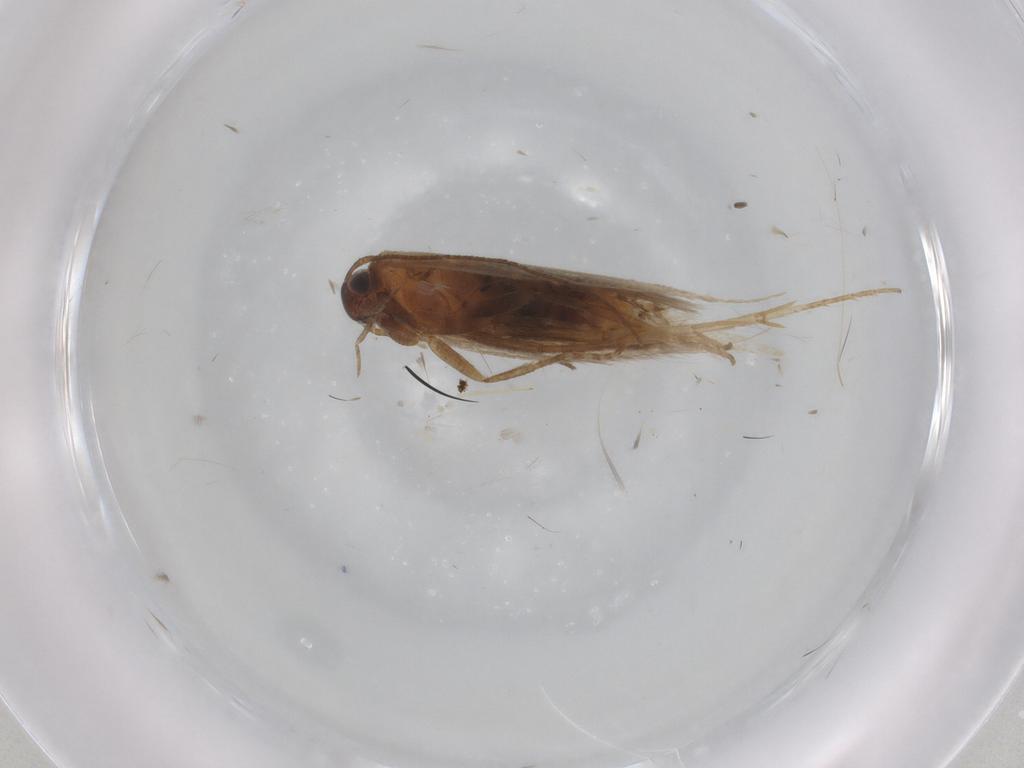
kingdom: Animalia
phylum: Arthropoda
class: Insecta
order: Lepidoptera
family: Gelechiidae
